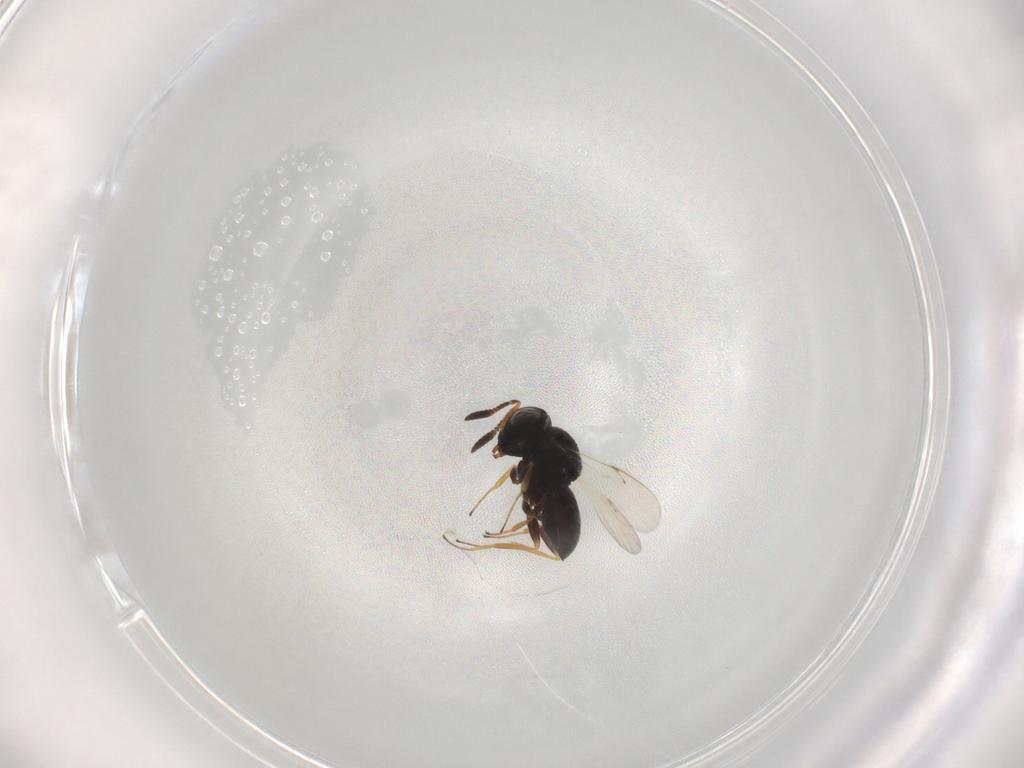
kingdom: Animalia
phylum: Arthropoda
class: Insecta
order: Hymenoptera
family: Scelionidae
